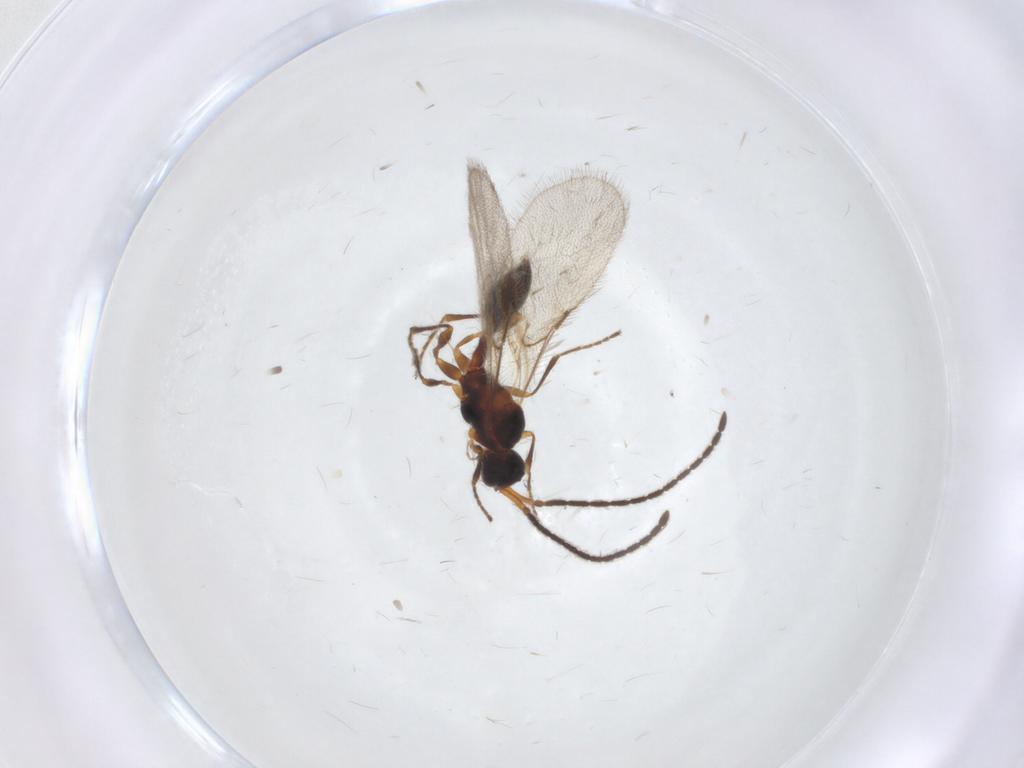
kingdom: Animalia
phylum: Arthropoda
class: Insecta
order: Hymenoptera
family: Diapriidae
